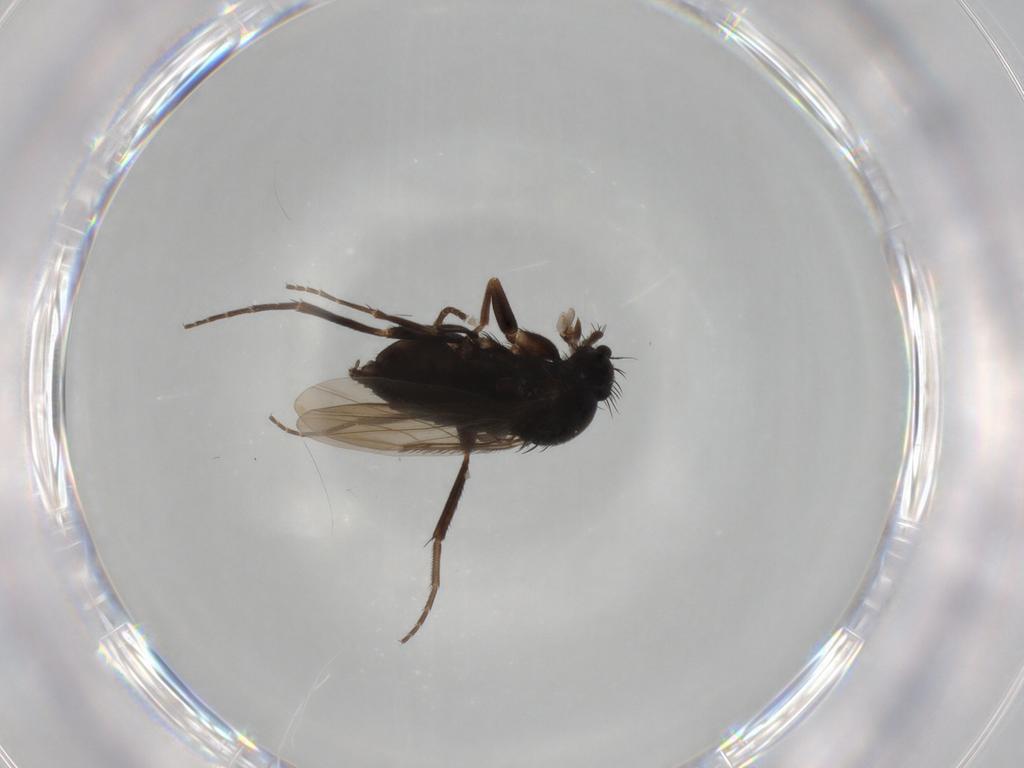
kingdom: Animalia
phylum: Arthropoda
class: Insecta
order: Diptera
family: Phoridae
